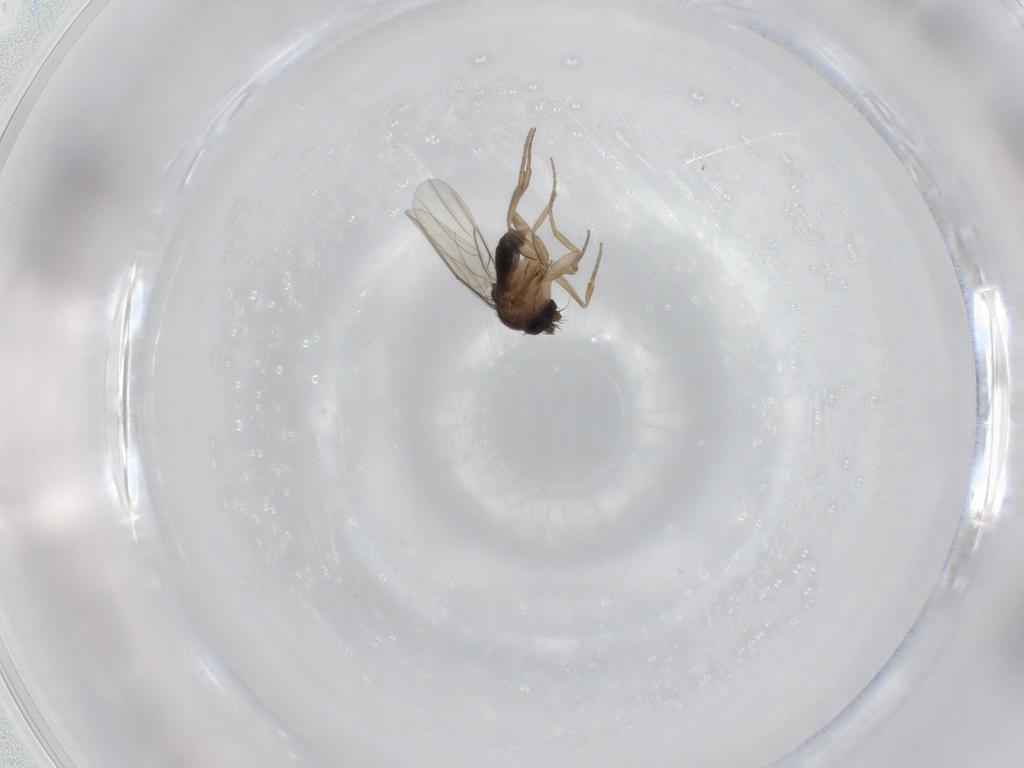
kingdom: Animalia
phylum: Arthropoda
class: Insecta
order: Diptera
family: Phoridae
